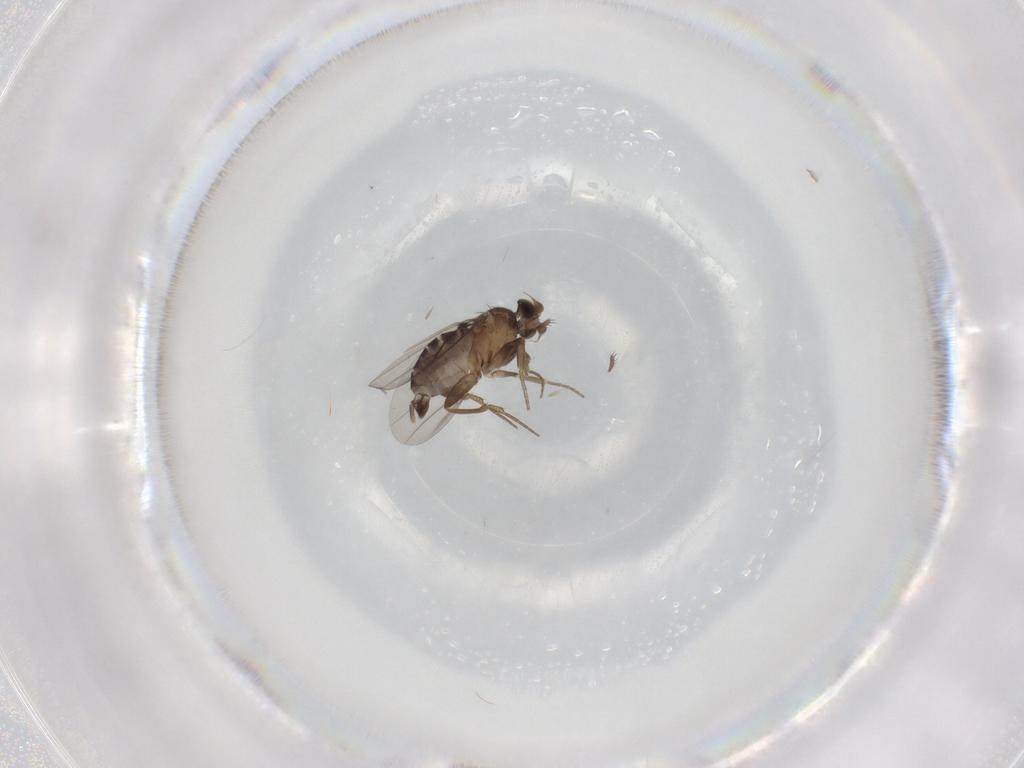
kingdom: Animalia
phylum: Arthropoda
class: Insecta
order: Diptera
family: Phoridae
